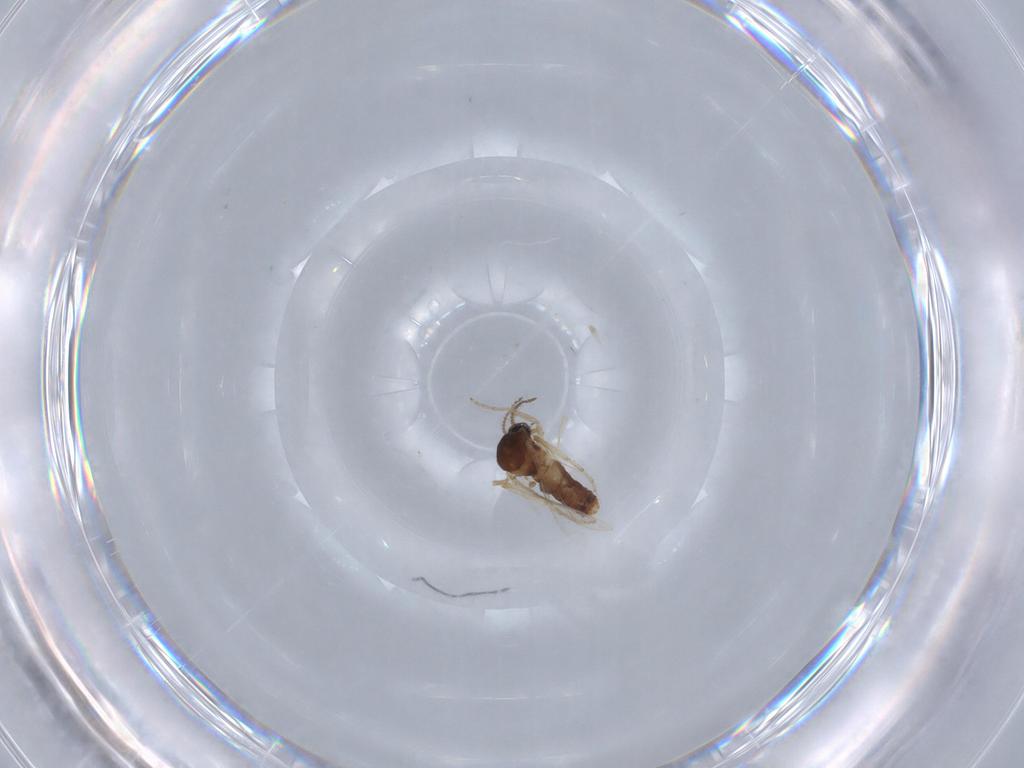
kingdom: Animalia
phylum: Arthropoda
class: Insecta
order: Diptera
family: Ceratopogonidae
